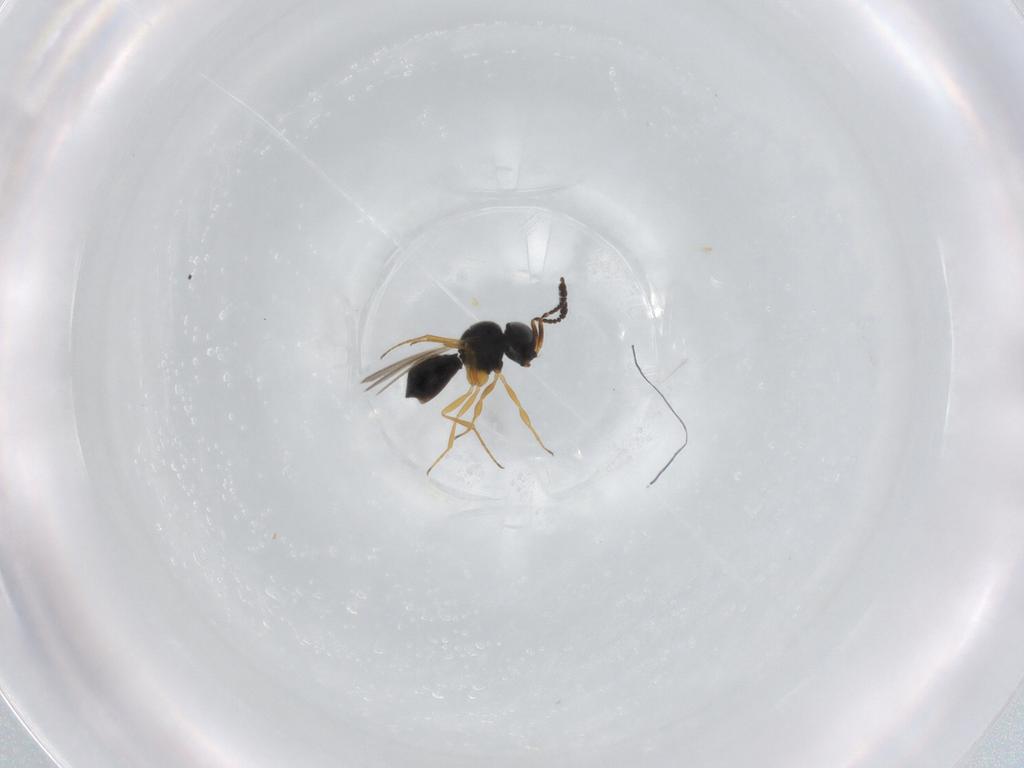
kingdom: Animalia
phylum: Arthropoda
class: Insecta
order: Hymenoptera
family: Scelionidae
